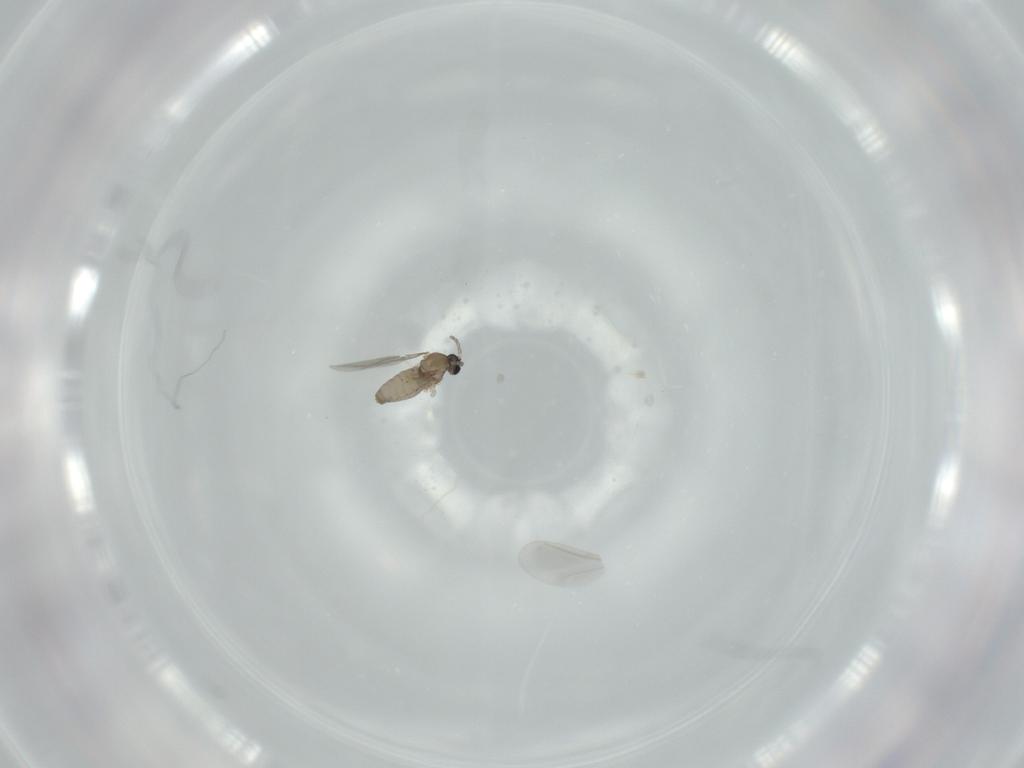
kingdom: Animalia
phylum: Arthropoda
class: Insecta
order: Diptera
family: Cecidomyiidae
